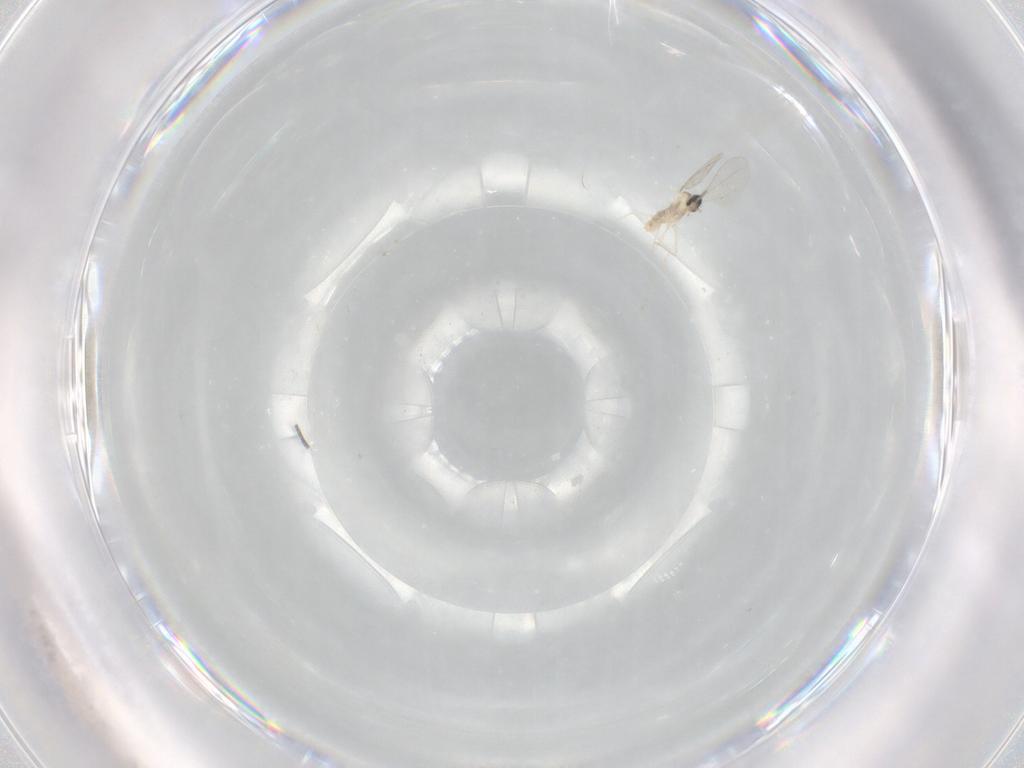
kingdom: Animalia
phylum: Arthropoda
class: Insecta
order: Diptera
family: Cecidomyiidae
